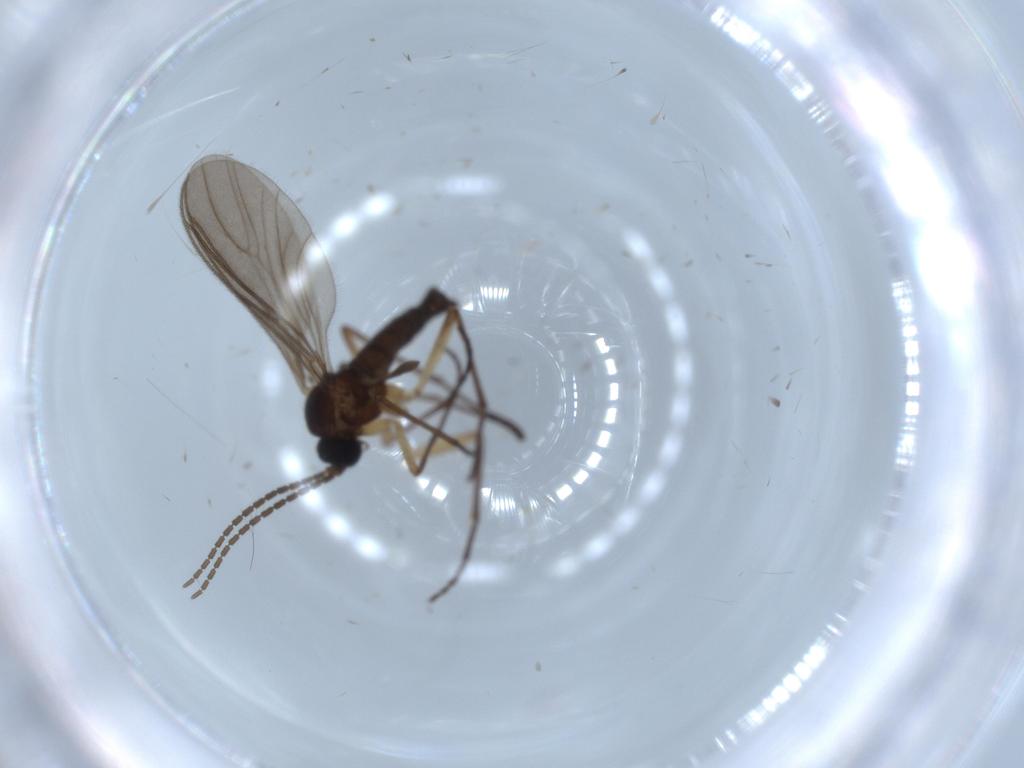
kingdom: Animalia
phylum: Arthropoda
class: Insecta
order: Diptera
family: Sciaridae
